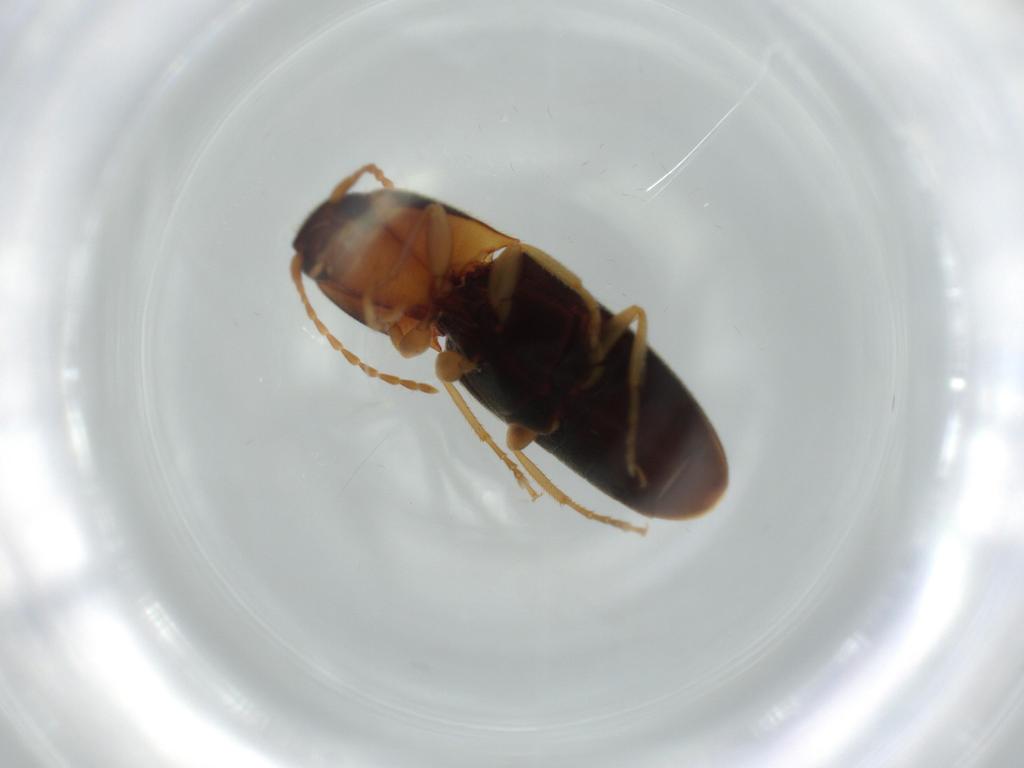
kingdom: Animalia
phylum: Arthropoda
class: Insecta
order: Coleoptera
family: Elateridae
